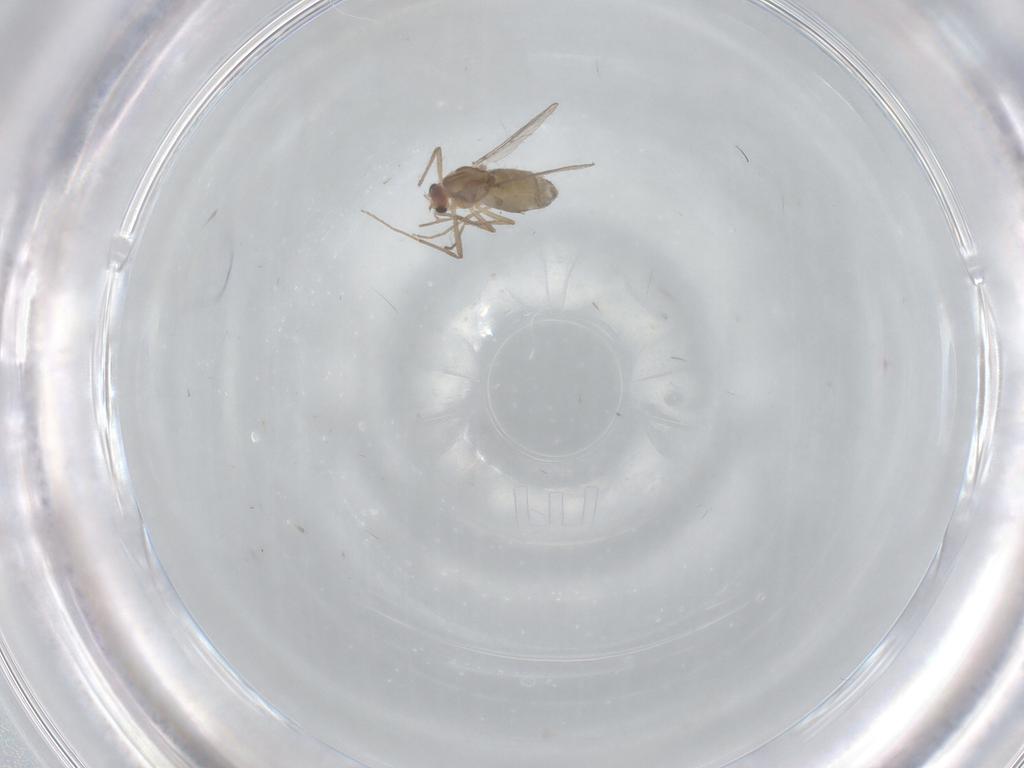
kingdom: Animalia
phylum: Arthropoda
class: Insecta
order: Diptera
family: Chironomidae
